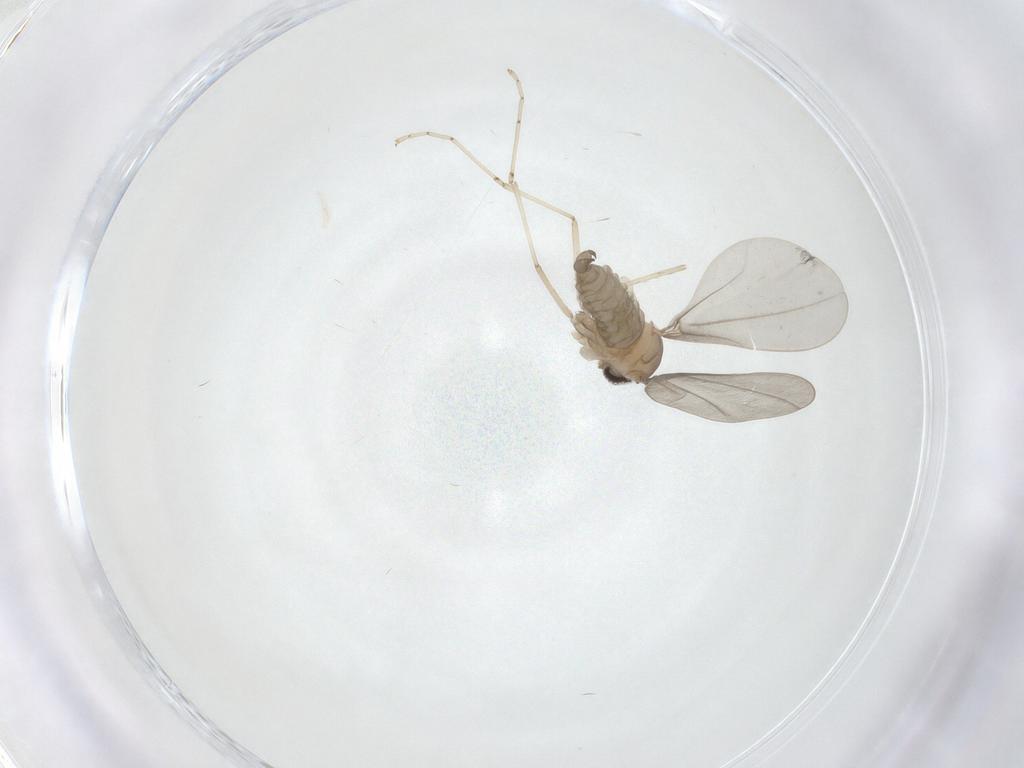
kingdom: Animalia
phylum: Arthropoda
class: Insecta
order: Diptera
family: Cecidomyiidae
